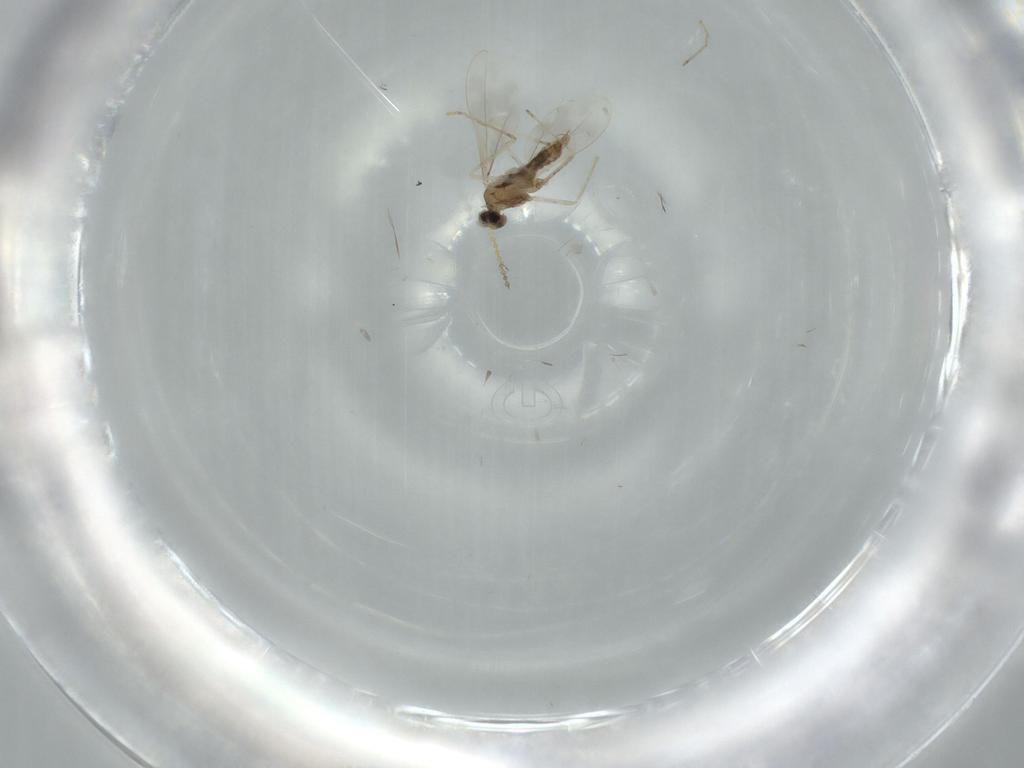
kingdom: Animalia
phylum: Arthropoda
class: Insecta
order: Diptera
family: Cecidomyiidae
